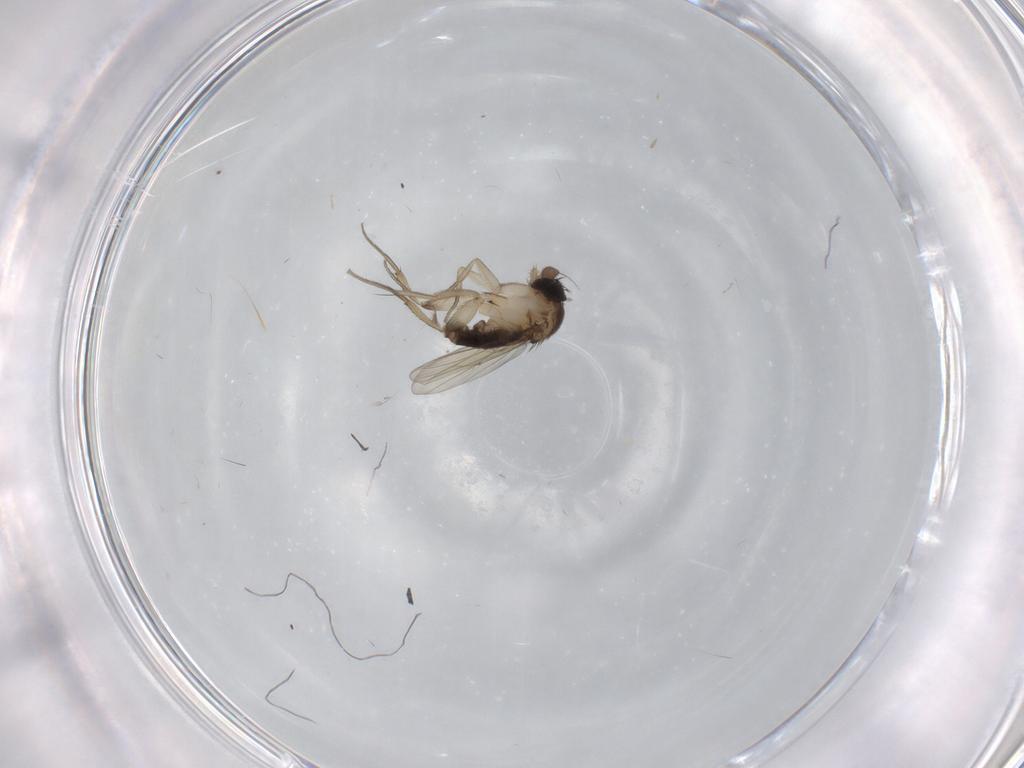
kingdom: Animalia
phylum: Arthropoda
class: Insecta
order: Diptera
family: Sciaridae
